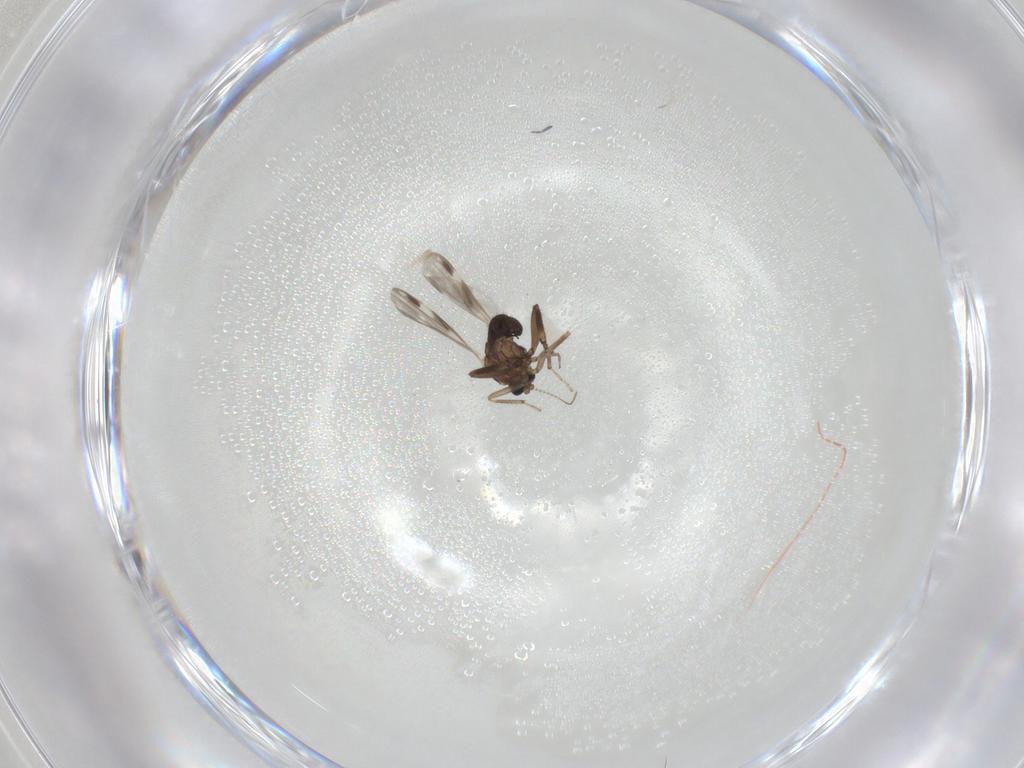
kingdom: Animalia
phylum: Arthropoda
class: Insecta
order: Diptera
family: Ceratopogonidae
